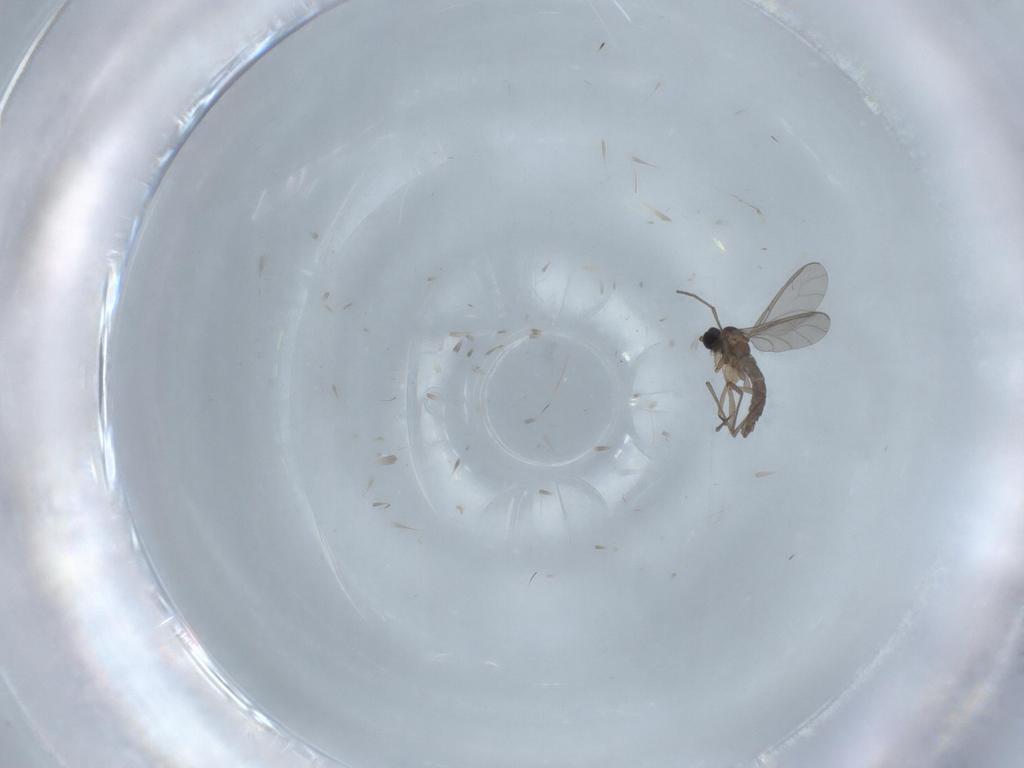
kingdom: Animalia
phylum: Arthropoda
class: Insecta
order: Diptera
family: Sciaridae
